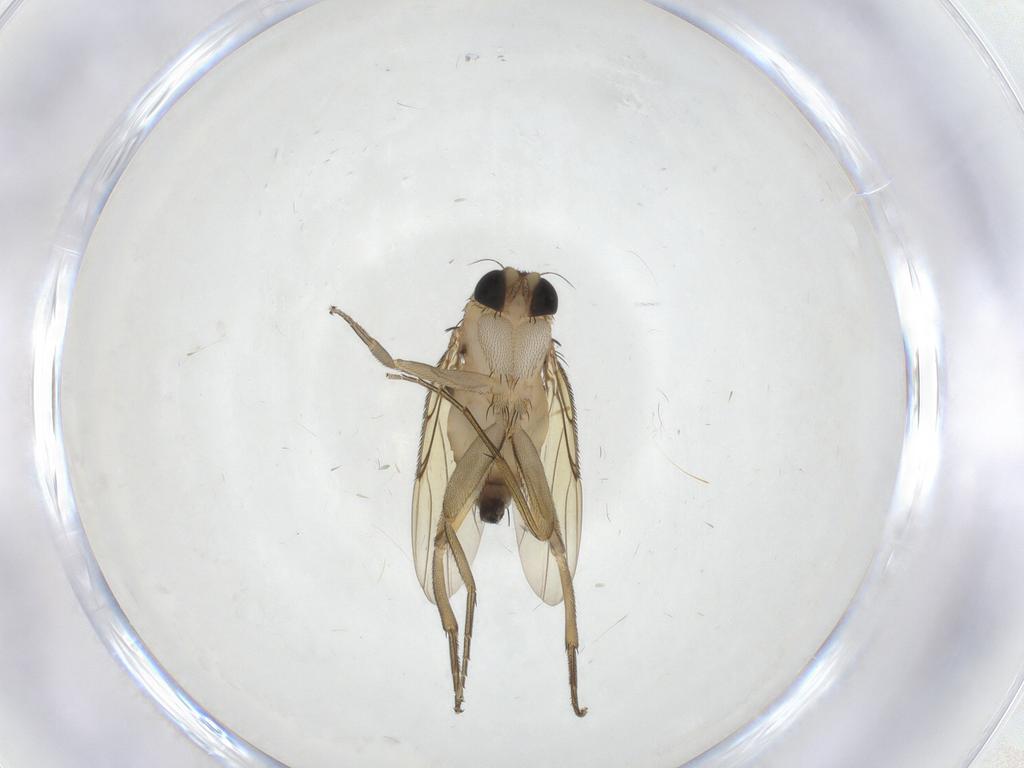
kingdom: Animalia
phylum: Arthropoda
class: Insecta
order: Diptera
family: Phoridae
